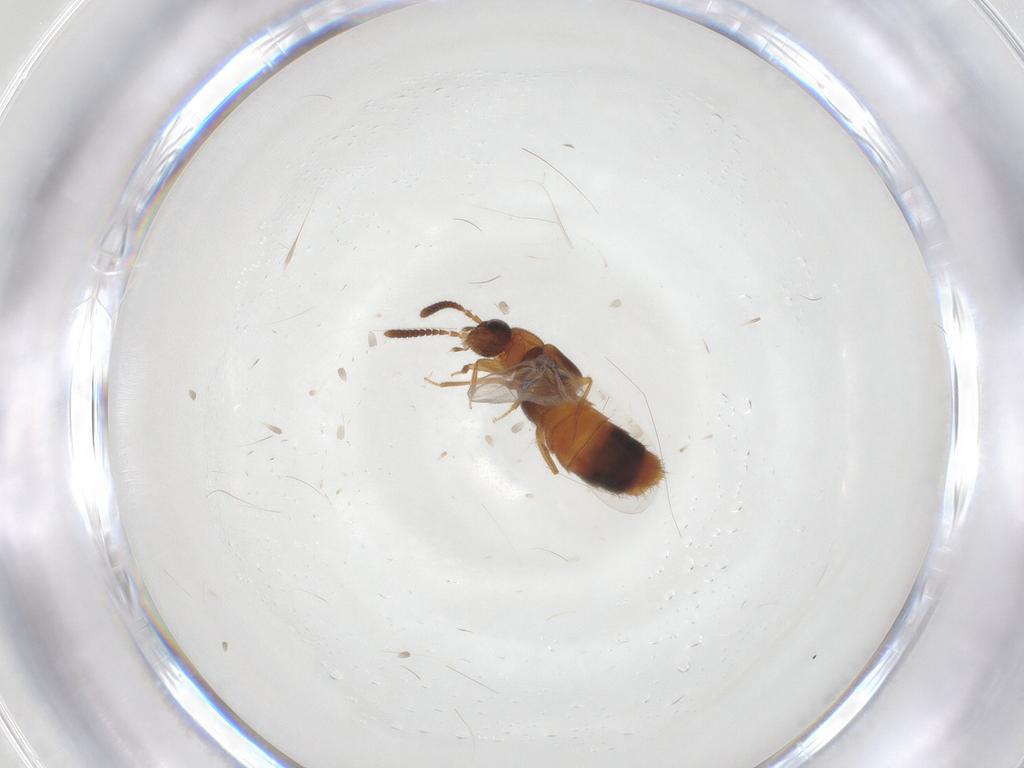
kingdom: Animalia
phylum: Arthropoda
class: Insecta
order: Coleoptera
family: Staphylinidae
